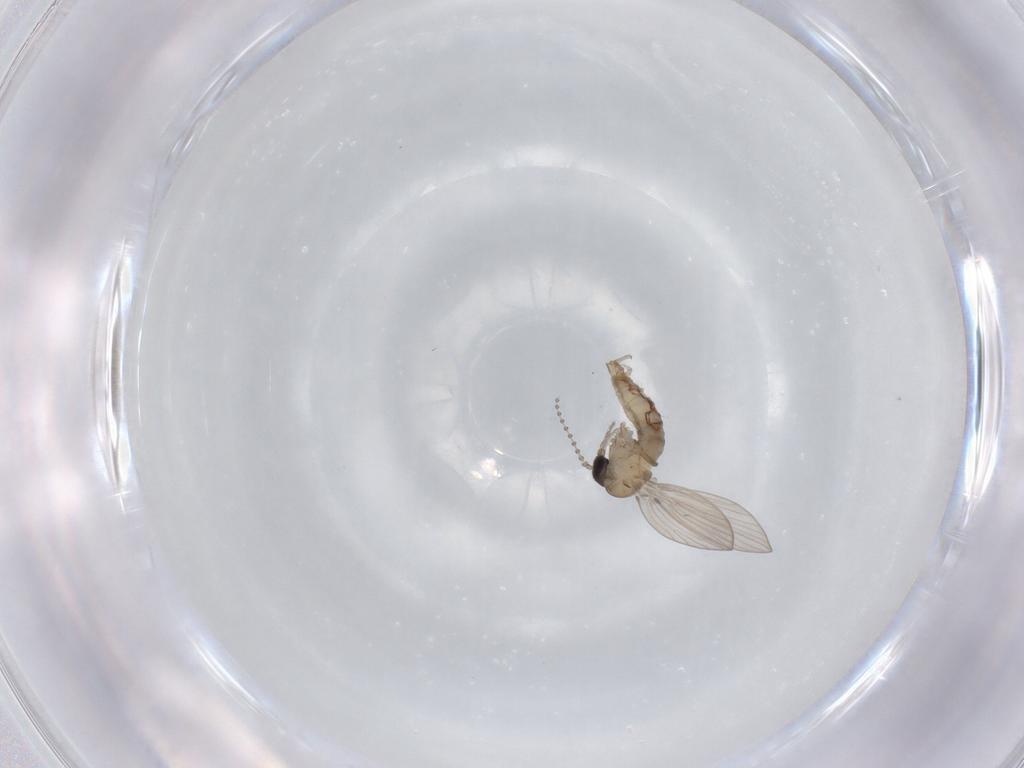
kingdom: Animalia
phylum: Arthropoda
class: Insecta
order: Diptera
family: Psychodidae
